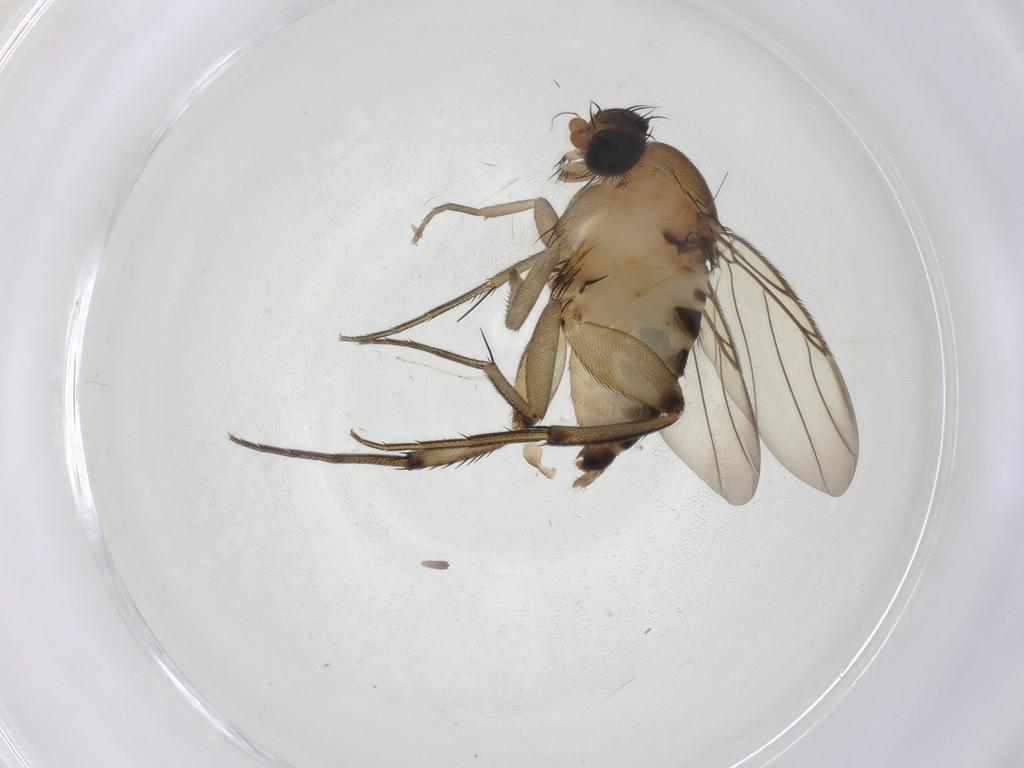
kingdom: Animalia
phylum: Arthropoda
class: Insecta
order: Diptera
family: Phoridae
